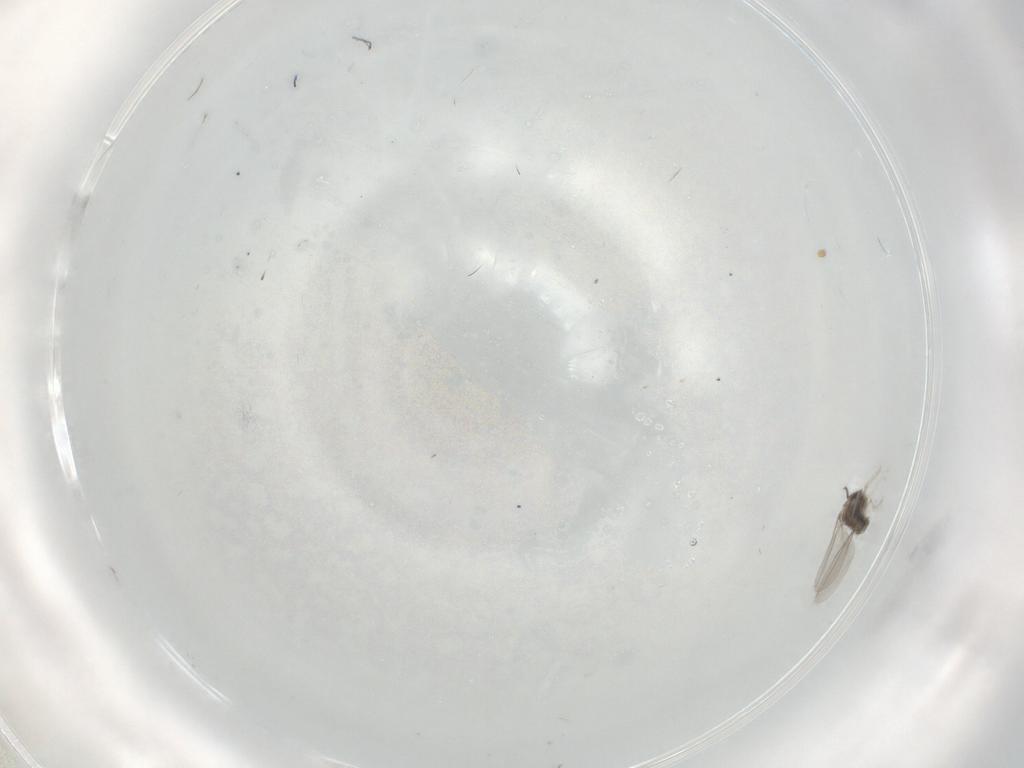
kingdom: Animalia
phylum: Arthropoda
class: Insecta
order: Diptera
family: Cecidomyiidae
